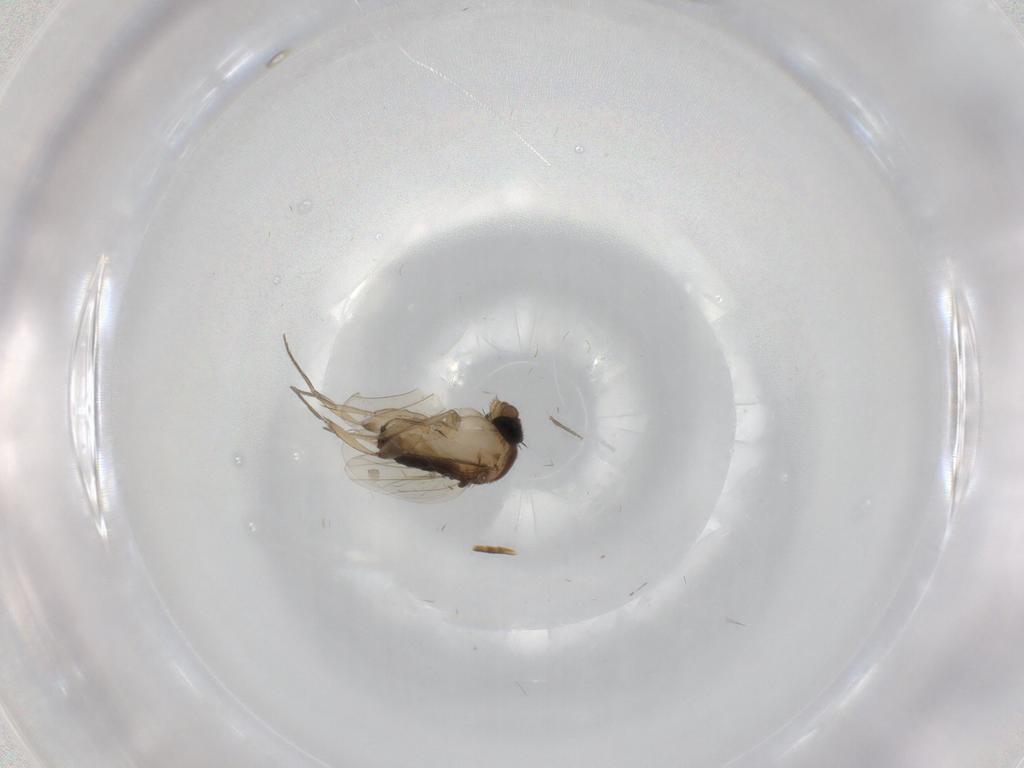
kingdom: Animalia
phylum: Arthropoda
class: Insecta
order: Diptera
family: Phoridae
